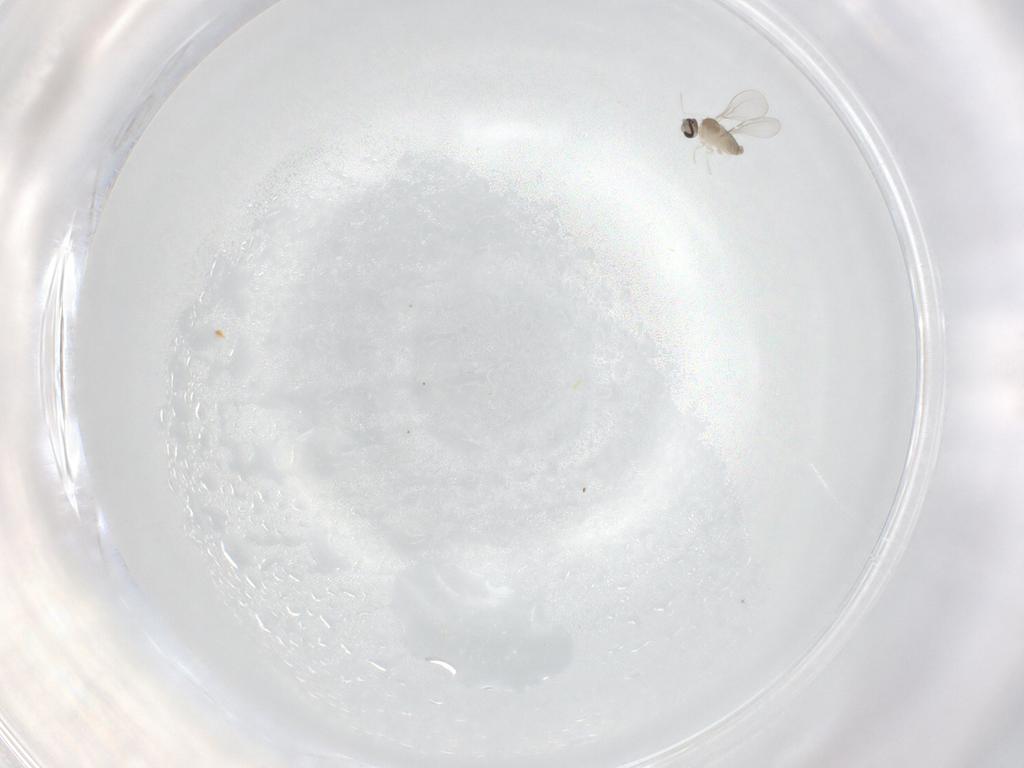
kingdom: Animalia
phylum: Arthropoda
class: Insecta
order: Diptera
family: Cecidomyiidae
